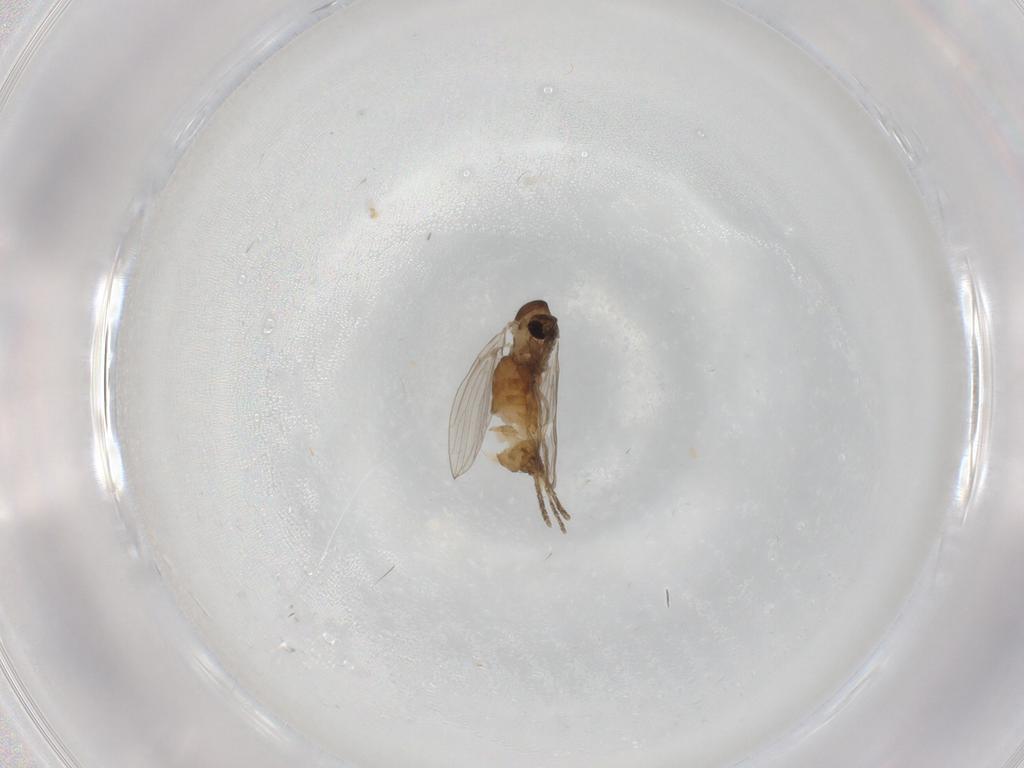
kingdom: Animalia
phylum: Arthropoda
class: Insecta
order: Diptera
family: Chironomidae
